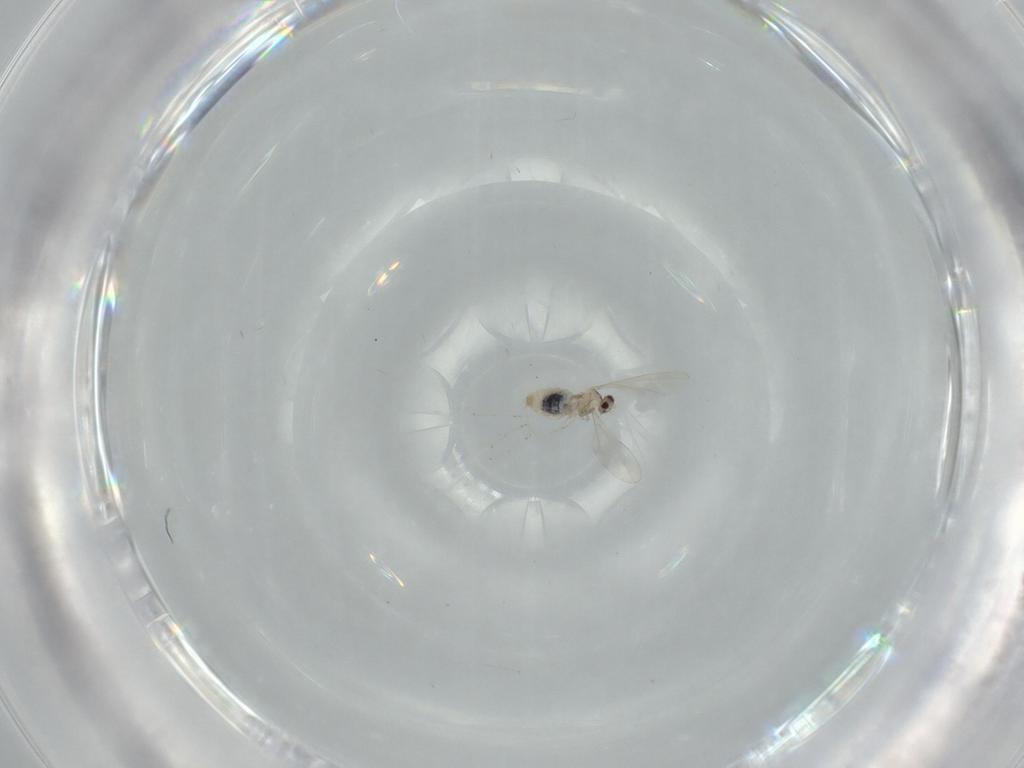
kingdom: Animalia
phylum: Arthropoda
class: Insecta
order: Diptera
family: Cecidomyiidae
